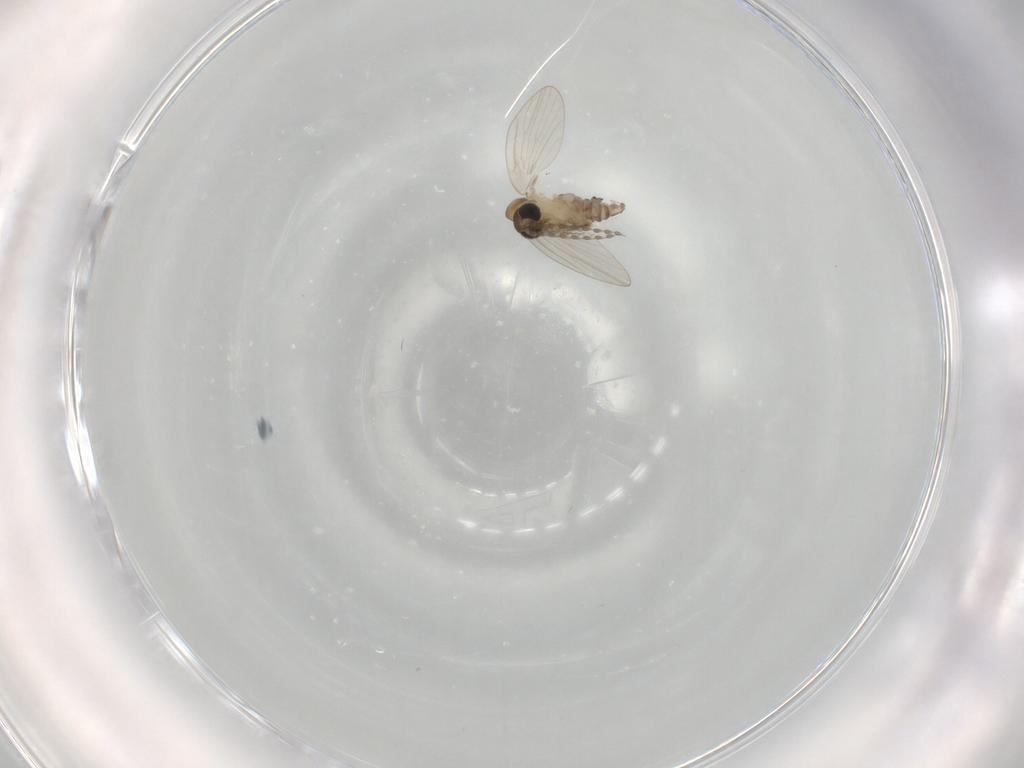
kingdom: Animalia
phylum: Arthropoda
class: Insecta
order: Diptera
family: Psychodidae
